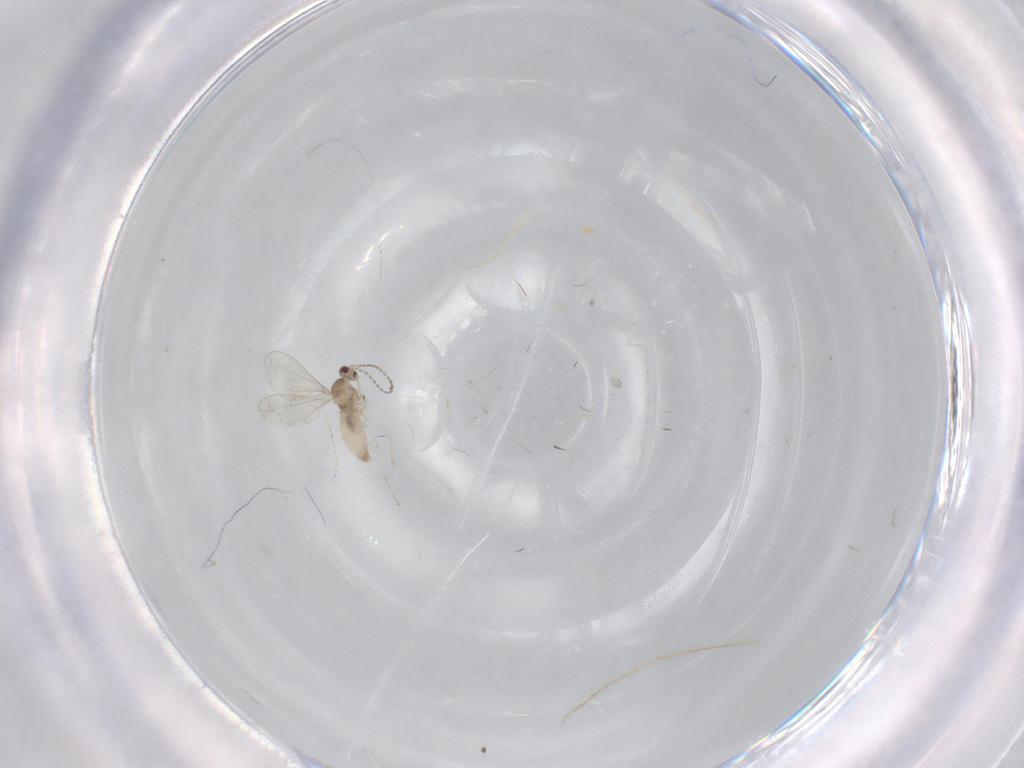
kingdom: Animalia
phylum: Arthropoda
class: Insecta
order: Diptera
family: Cecidomyiidae
